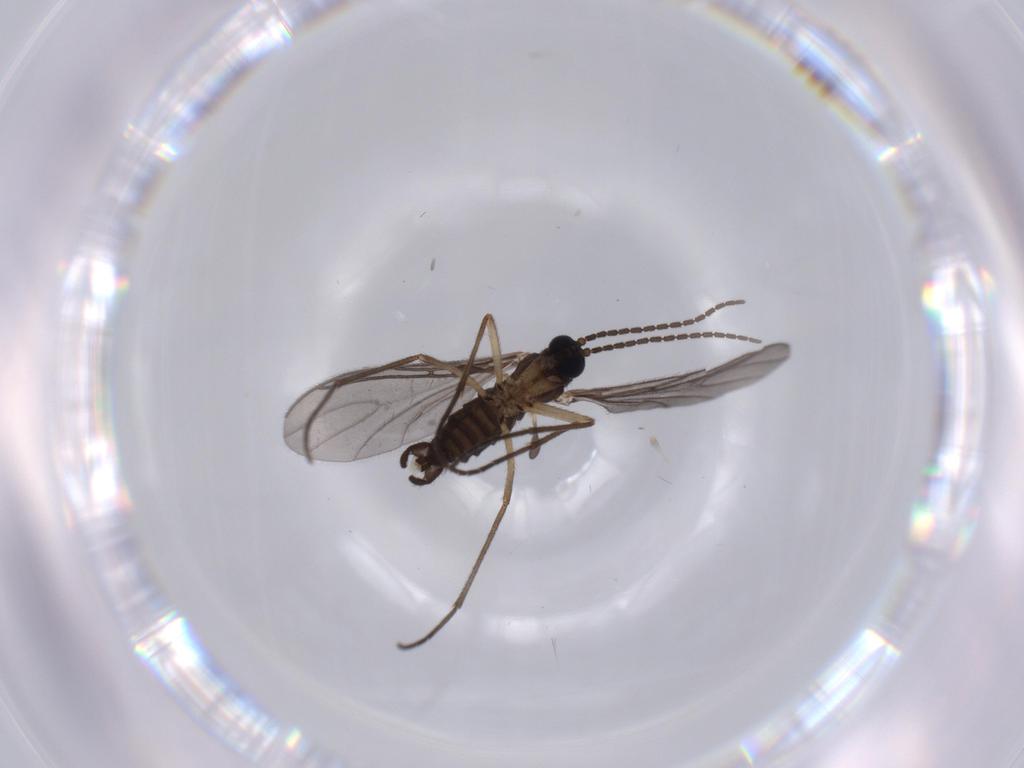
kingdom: Animalia
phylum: Arthropoda
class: Insecta
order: Diptera
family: Sciaridae
